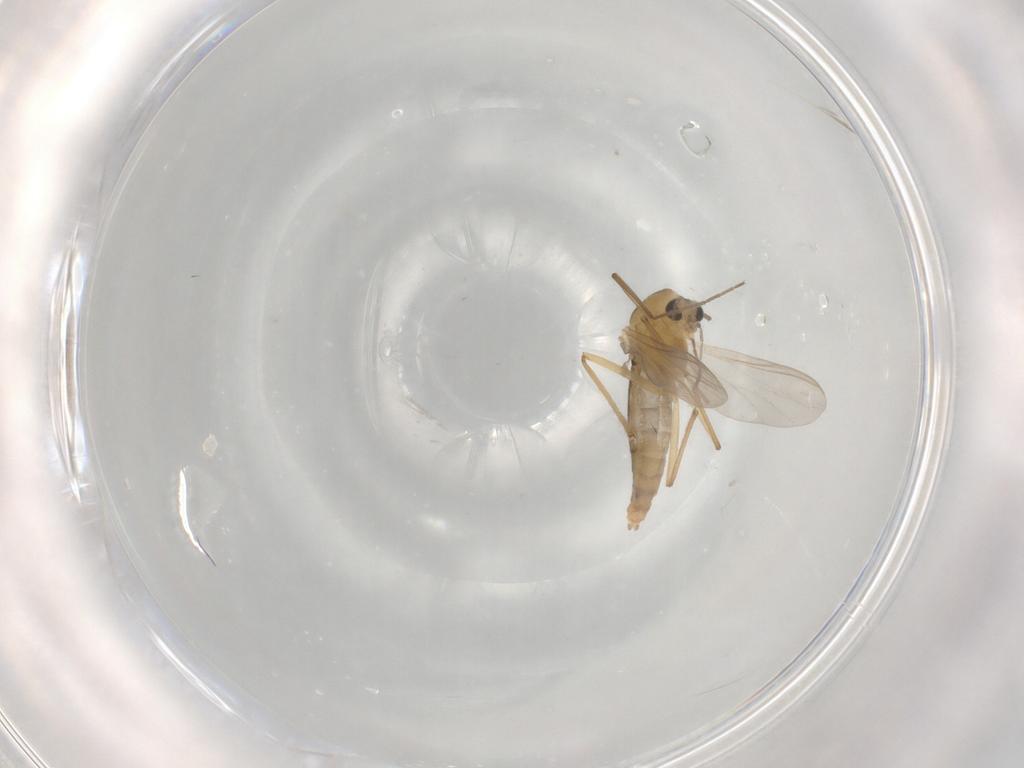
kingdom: Animalia
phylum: Arthropoda
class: Insecta
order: Diptera
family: Chironomidae
